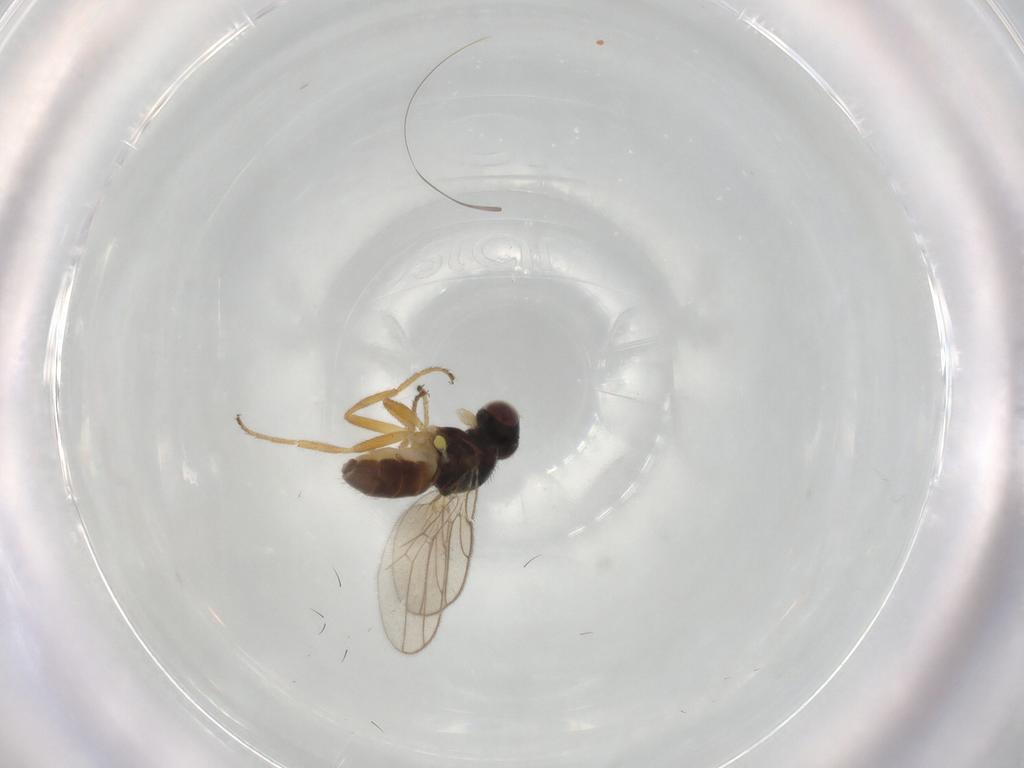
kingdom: Animalia
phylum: Arthropoda
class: Insecta
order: Diptera
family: Chloropidae
